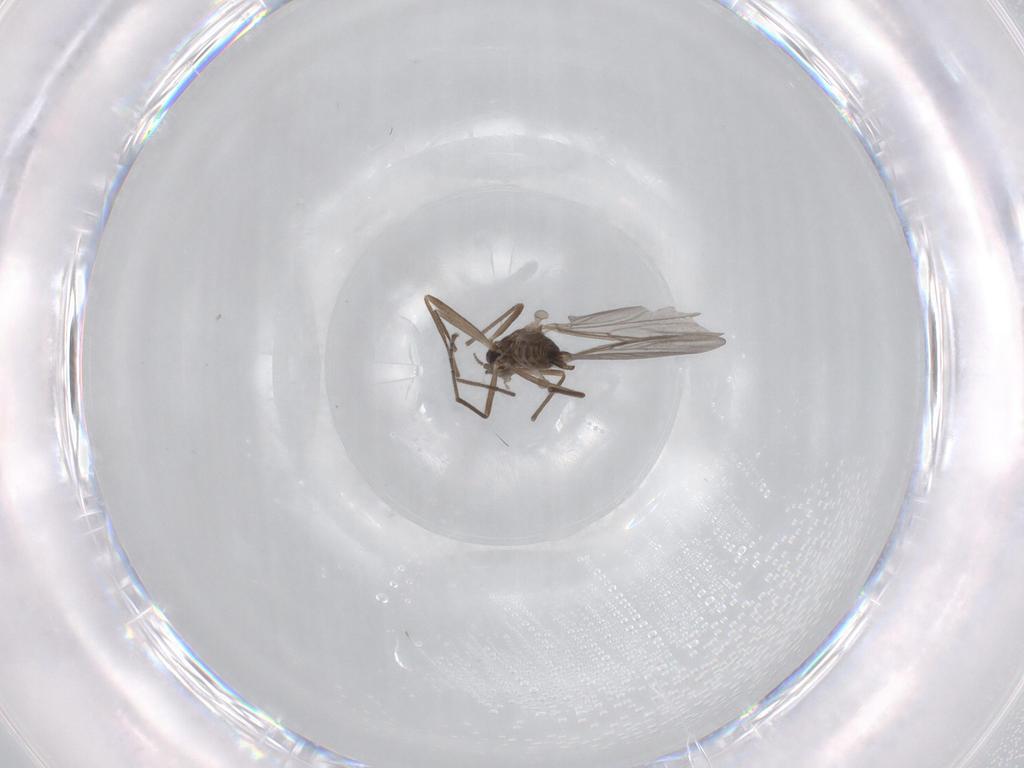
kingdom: Animalia
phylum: Arthropoda
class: Insecta
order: Diptera
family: Cecidomyiidae
